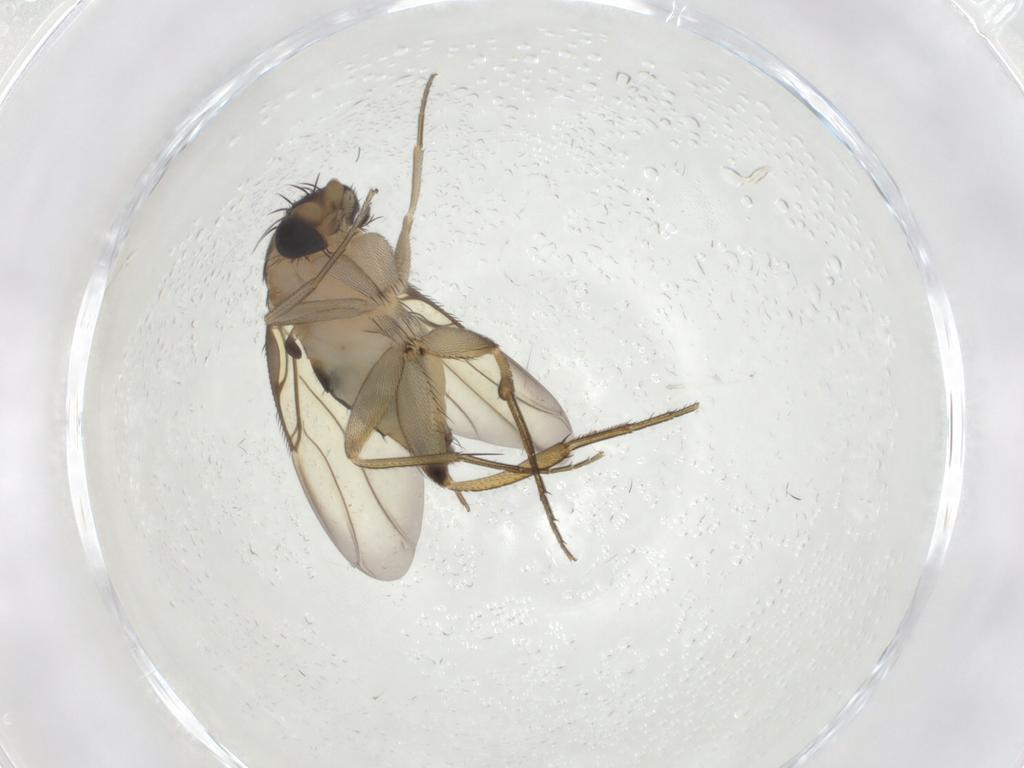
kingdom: Animalia
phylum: Arthropoda
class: Insecta
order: Diptera
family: Phoridae
